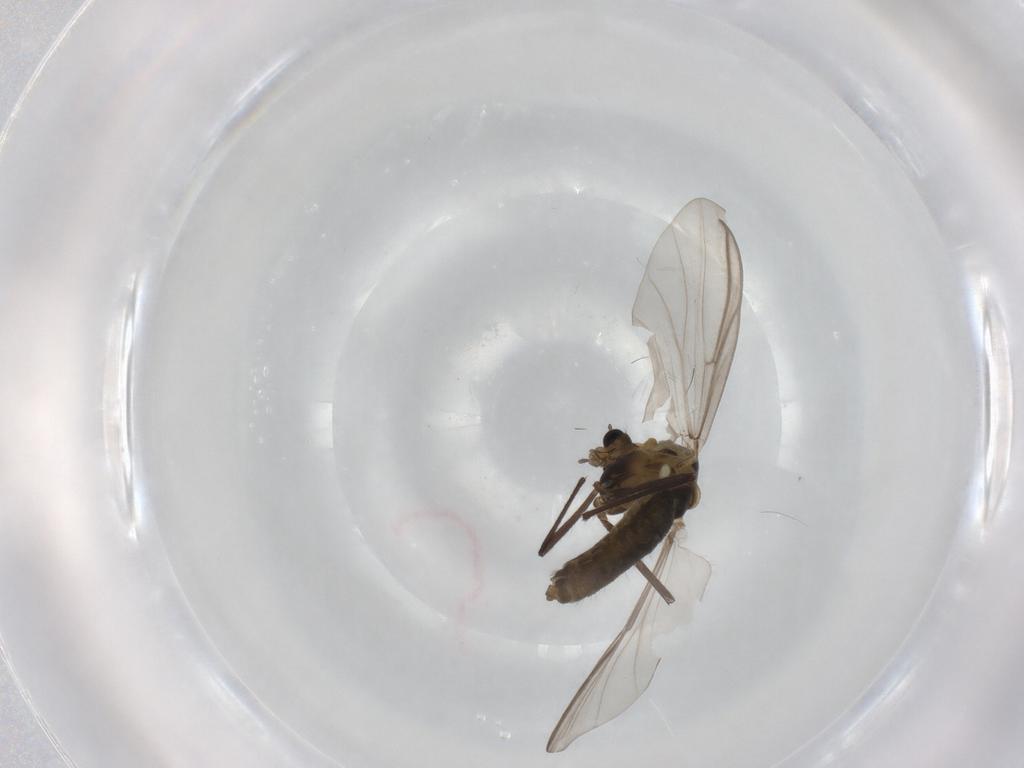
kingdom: Animalia
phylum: Arthropoda
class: Insecta
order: Diptera
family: Chironomidae
